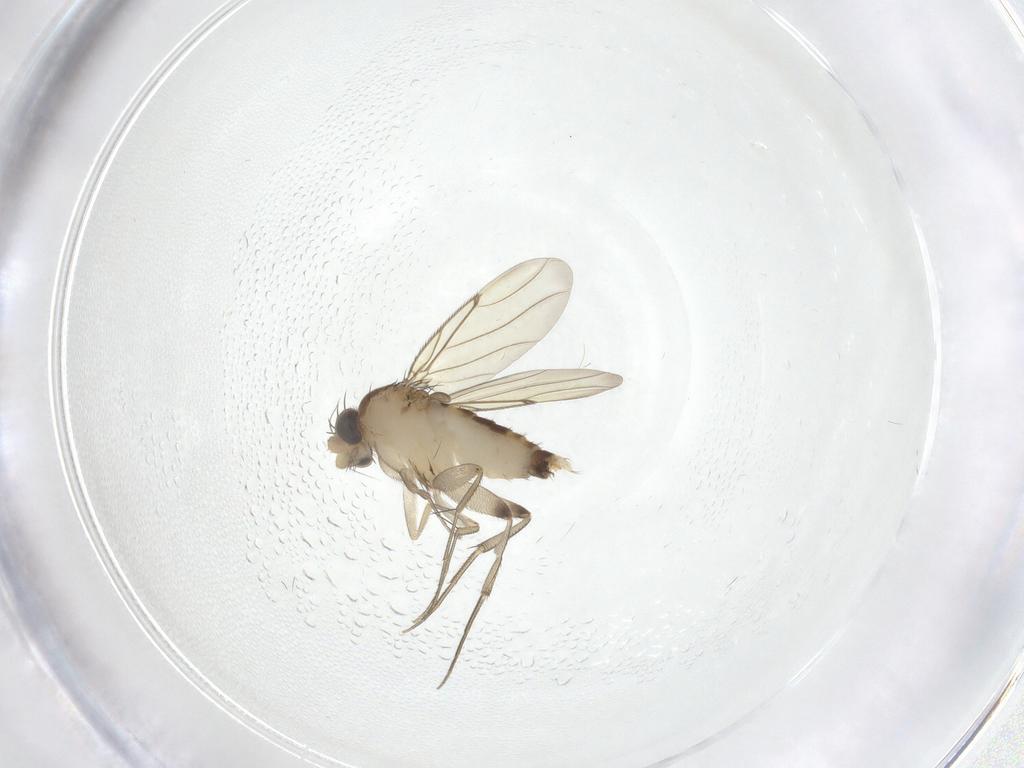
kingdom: Animalia
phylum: Arthropoda
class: Insecta
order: Diptera
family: Phoridae
